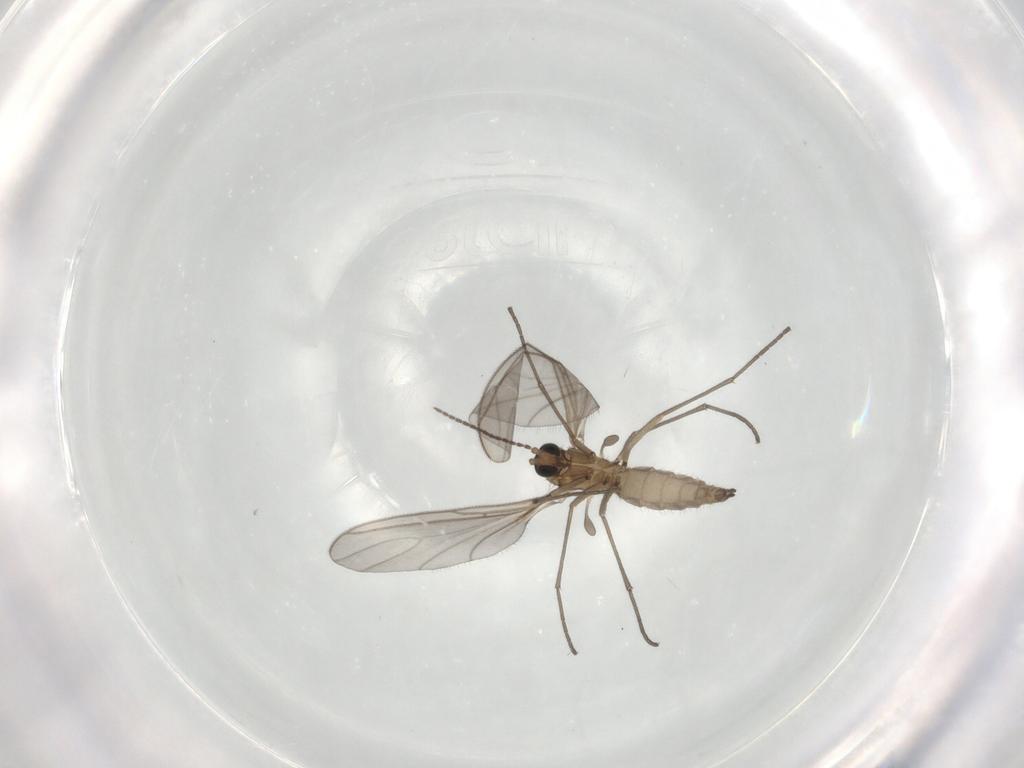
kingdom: Animalia
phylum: Arthropoda
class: Insecta
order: Diptera
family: Sciaridae
